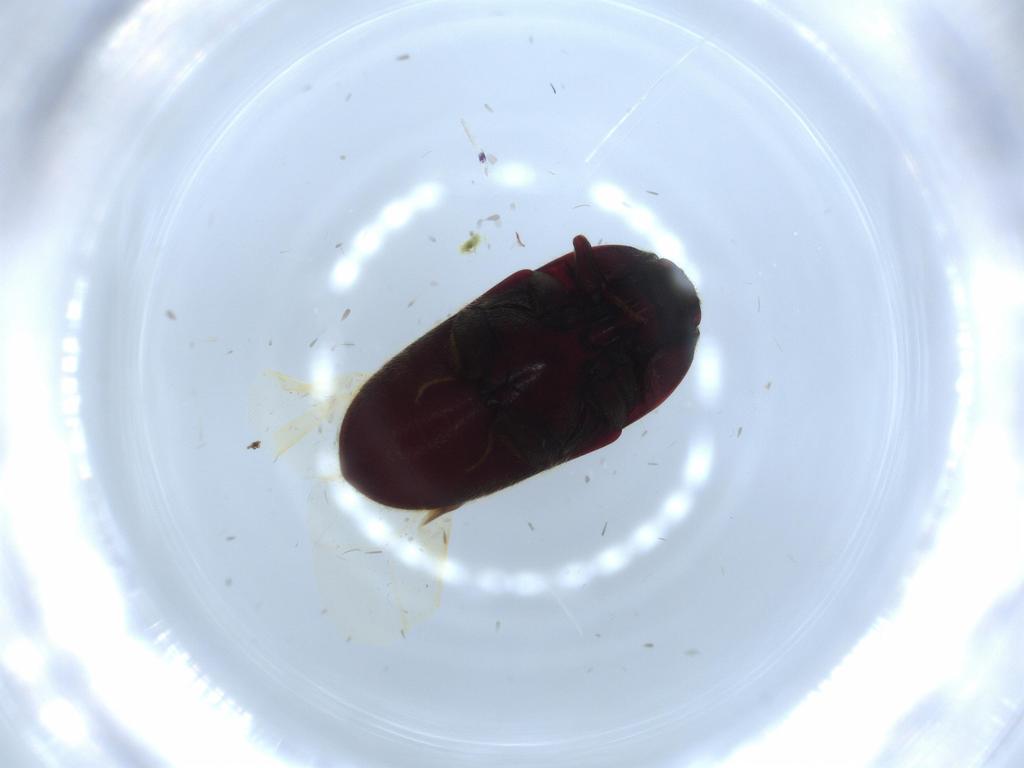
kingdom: Animalia
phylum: Arthropoda
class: Insecta
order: Coleoptera
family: Throscidae
